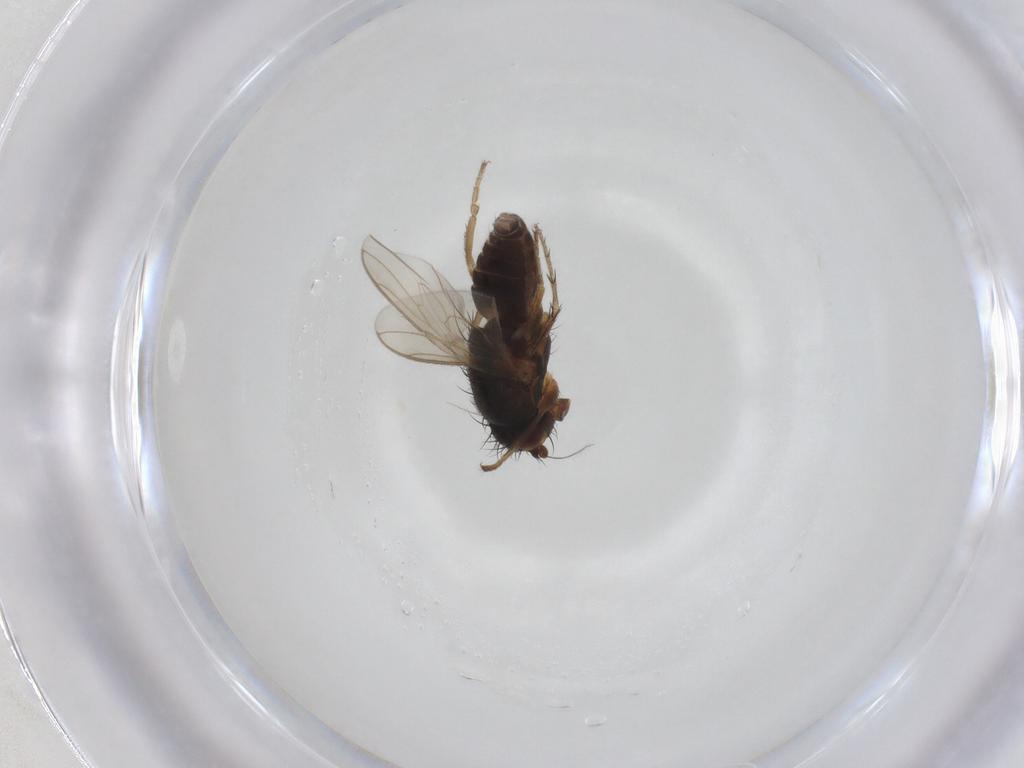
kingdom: Animalia
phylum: Arthropoda
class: Insecta
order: Diptera
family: Sphaeroceridae
